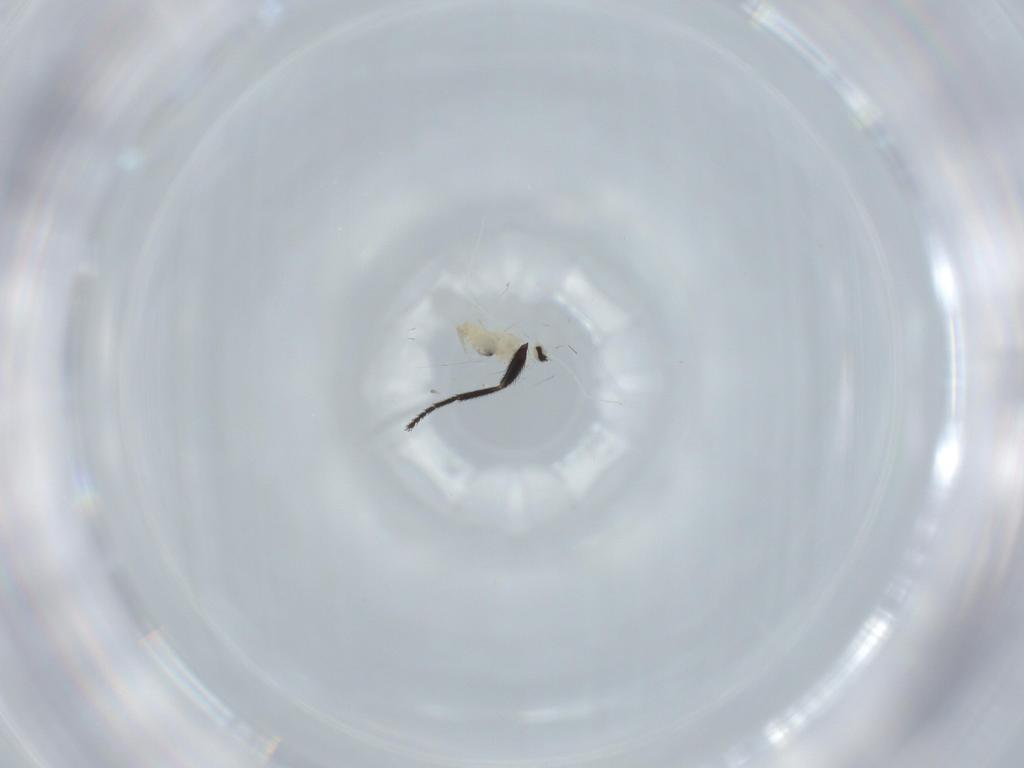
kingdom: Animalia
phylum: Arthropoda
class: Insecta
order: Diptera
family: Cecidomyiidae
